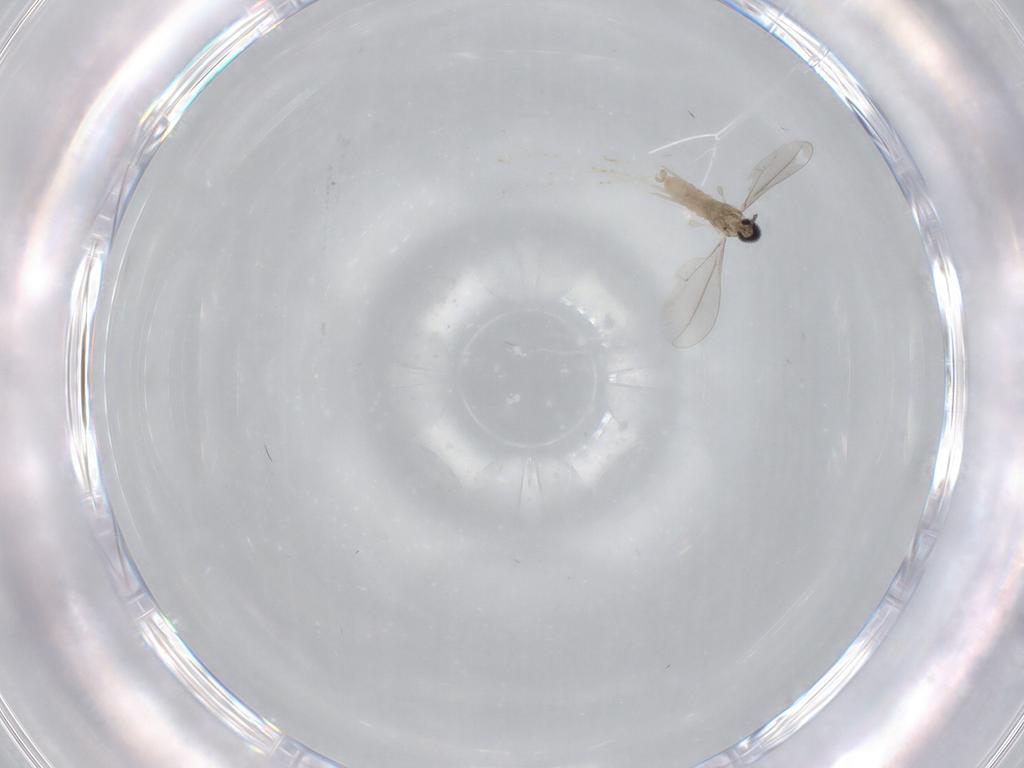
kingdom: Animalia
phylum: Arthropoda
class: Insecta
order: Diptera
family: Cecidomyiidae
